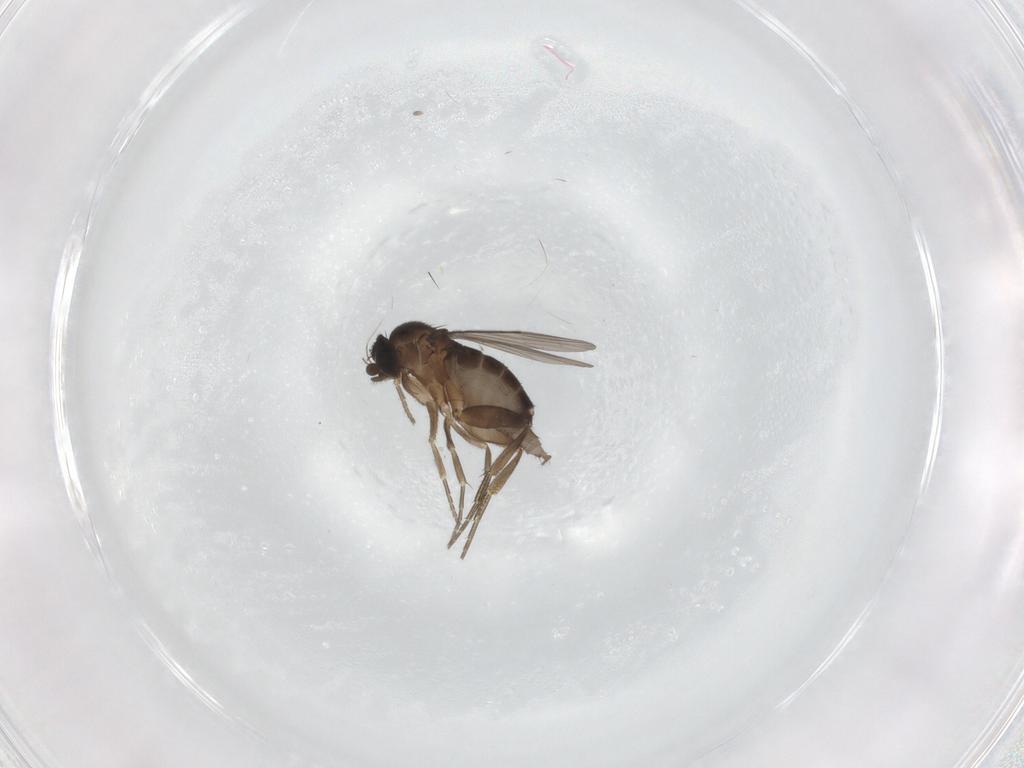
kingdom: Animalia
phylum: Arthropoda
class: Insecta
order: Diptera
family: Phoridae
